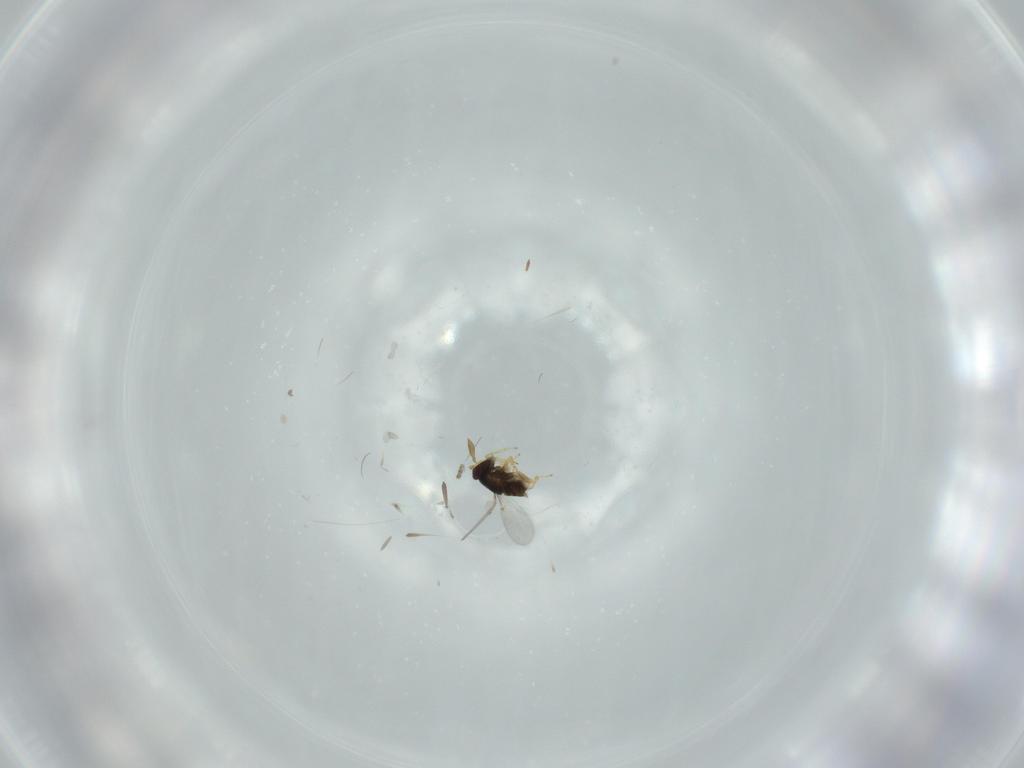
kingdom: Animalia
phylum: Arthropoda
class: Insecta
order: Hymenoptera
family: Encyrtidae
